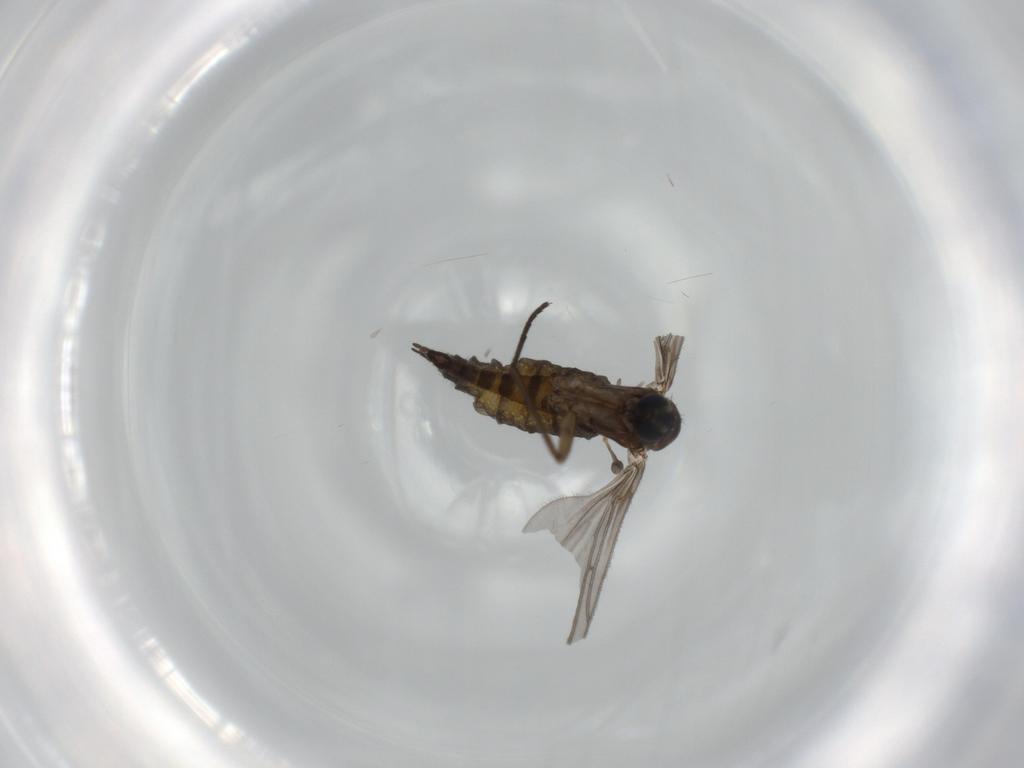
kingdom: Animalia
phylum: Arthropoda
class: Insecta
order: Diptera
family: Sciaridae
